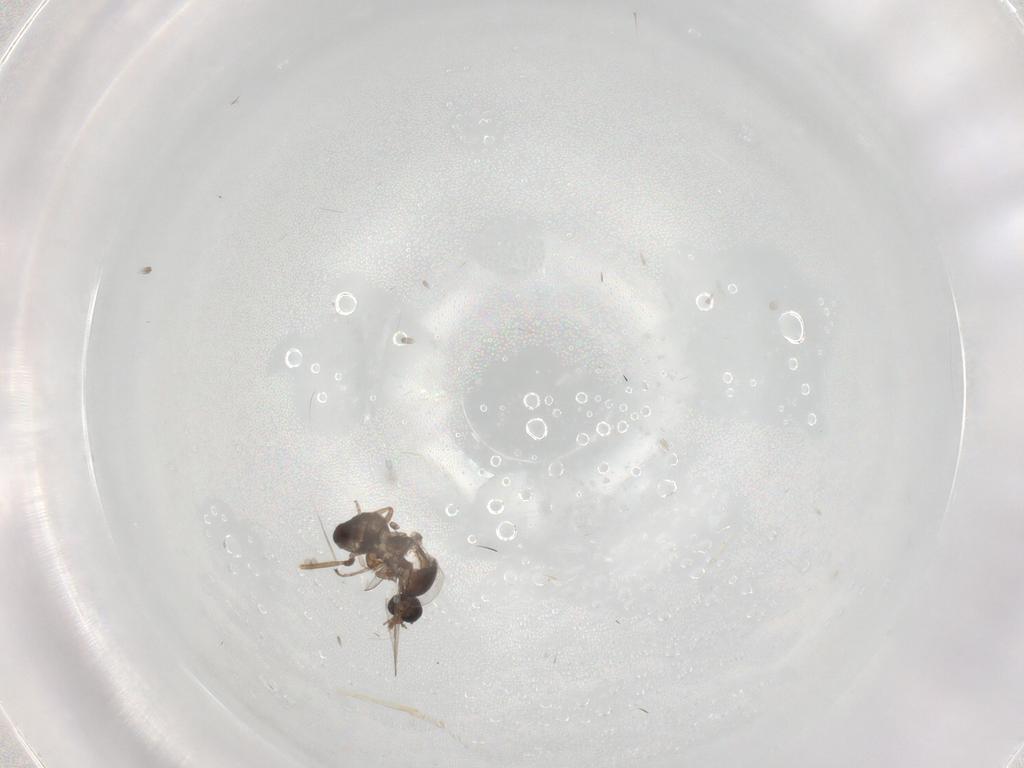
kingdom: Animalia
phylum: Arthropoda
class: Insecta
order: Diptera
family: Ceratopogonidae
